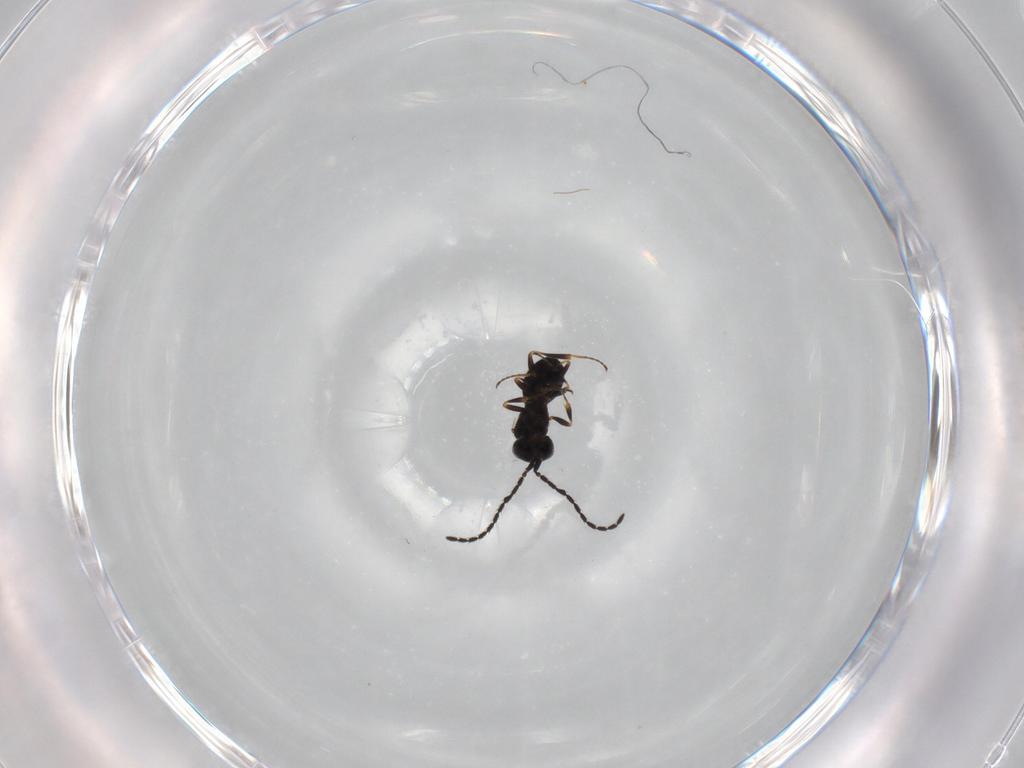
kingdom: Animalia
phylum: Arthropoda
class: Insecta
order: Hymenoptera
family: Scelionidae
